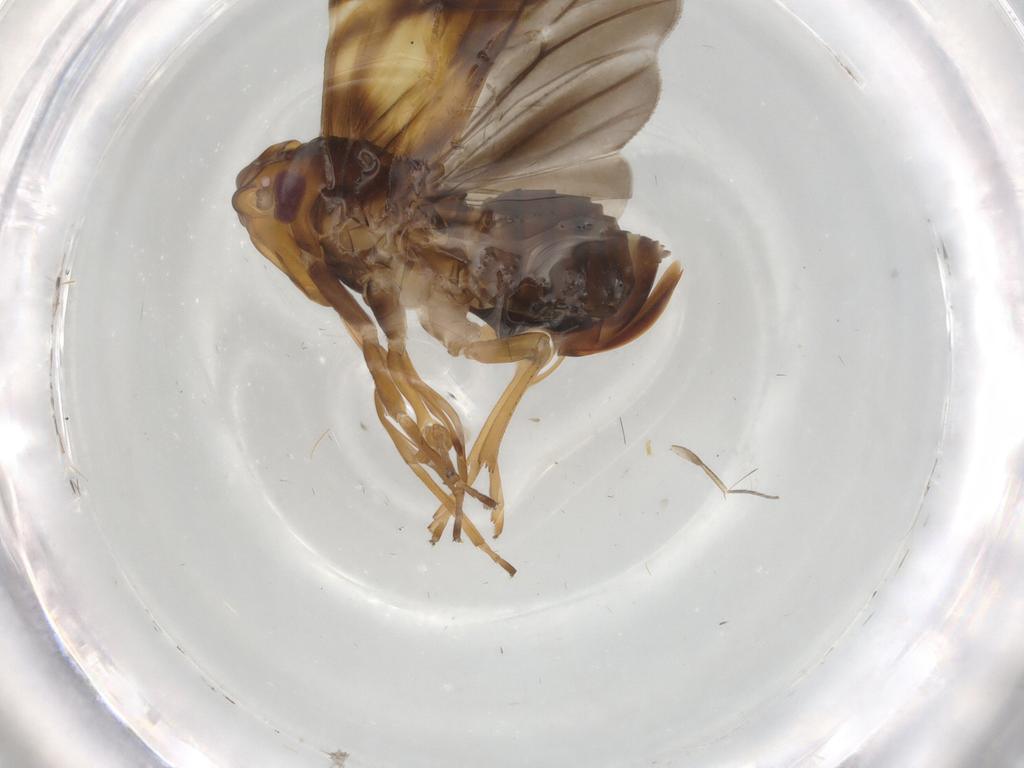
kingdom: Animalia
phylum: Arthropoda
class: Insecta
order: Hemiptera
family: Cixiidae
